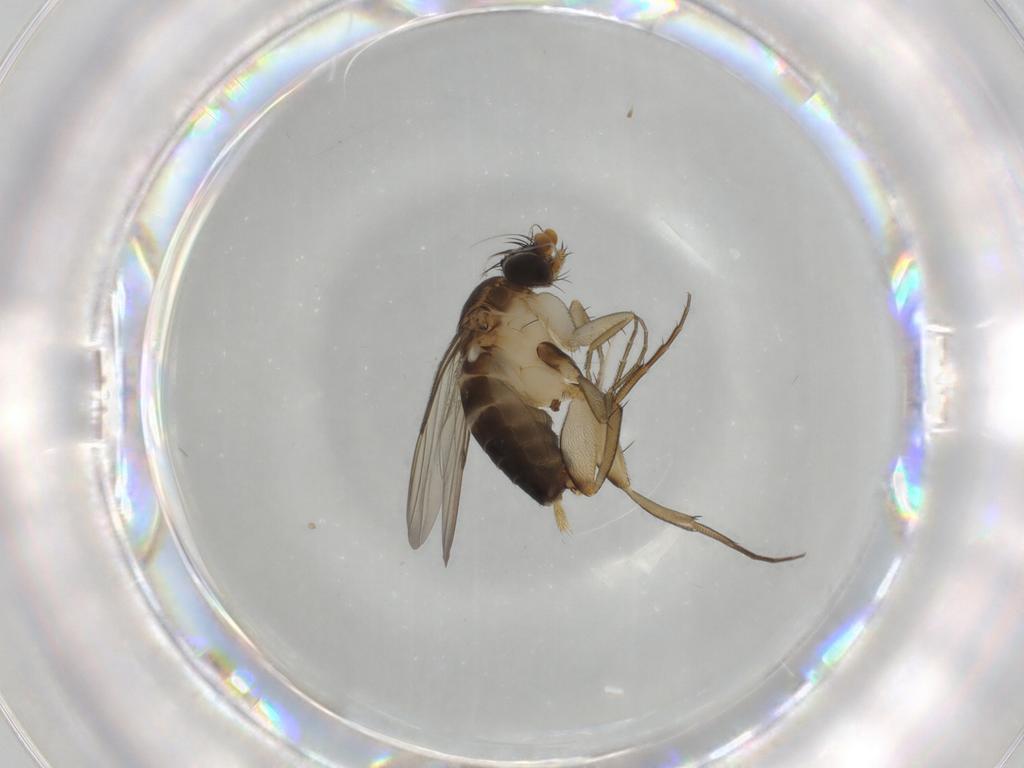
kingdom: Animalia
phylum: Arthropoda
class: Insecta
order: Diptera
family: Phoridae
